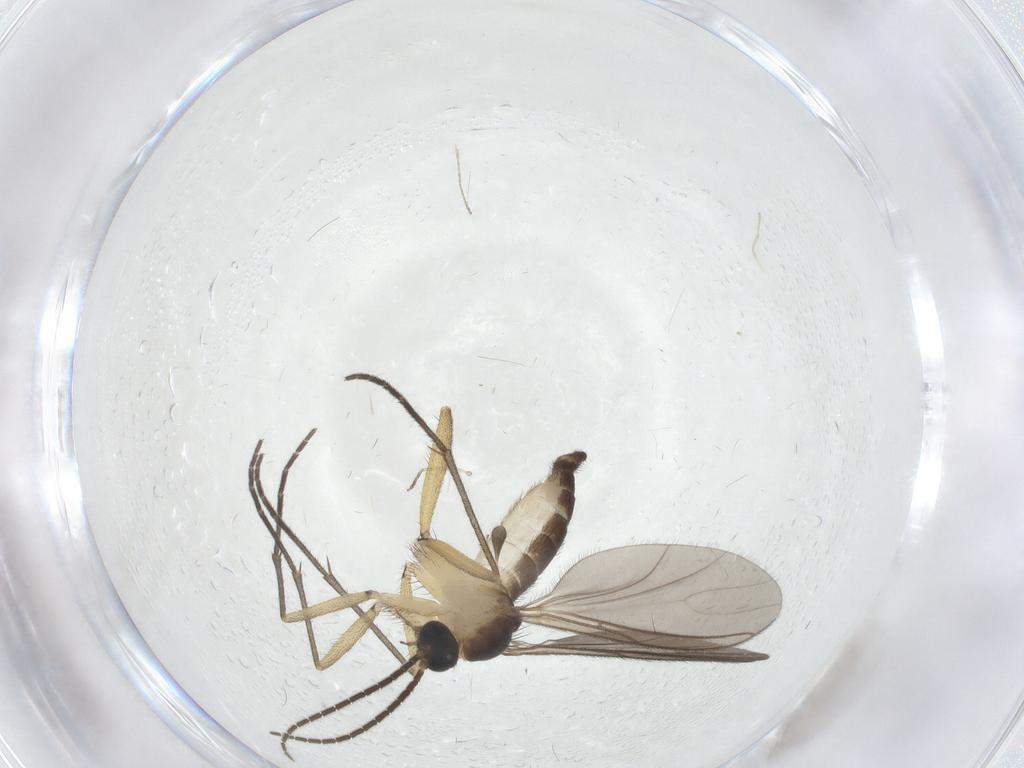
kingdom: Animalia
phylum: Arthropoda
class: Insecta
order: Diptera
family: Sciaridae
